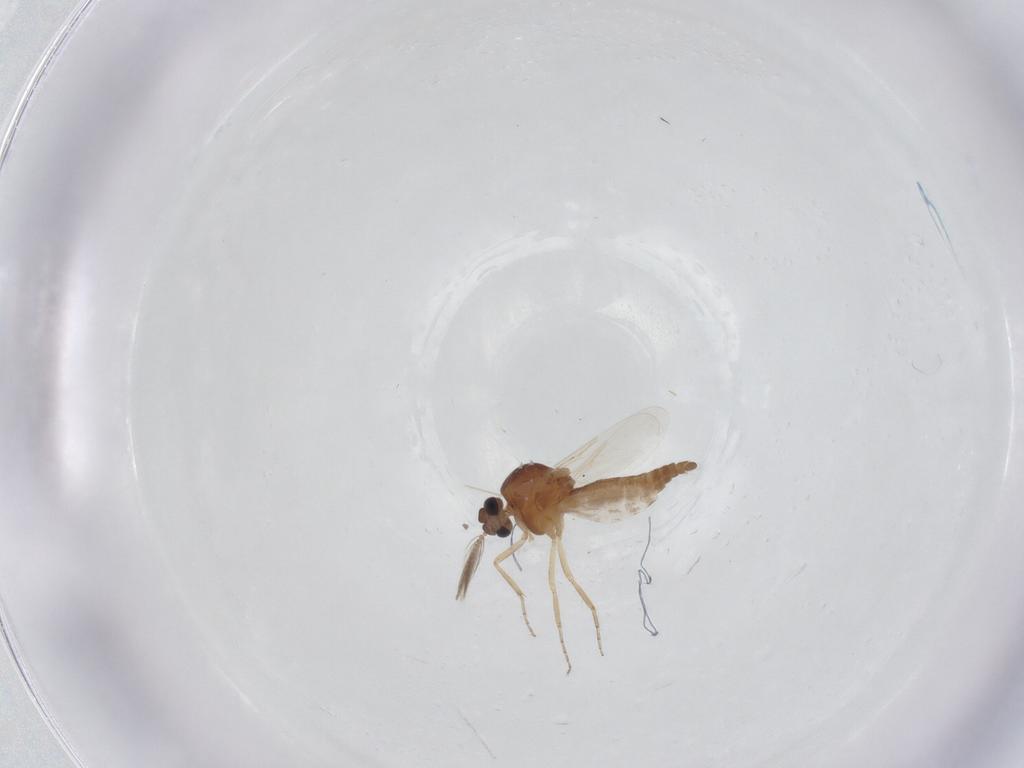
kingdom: Animalia
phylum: Arthropoda
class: Insecta
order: Diptera
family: Ceratopogonidae
